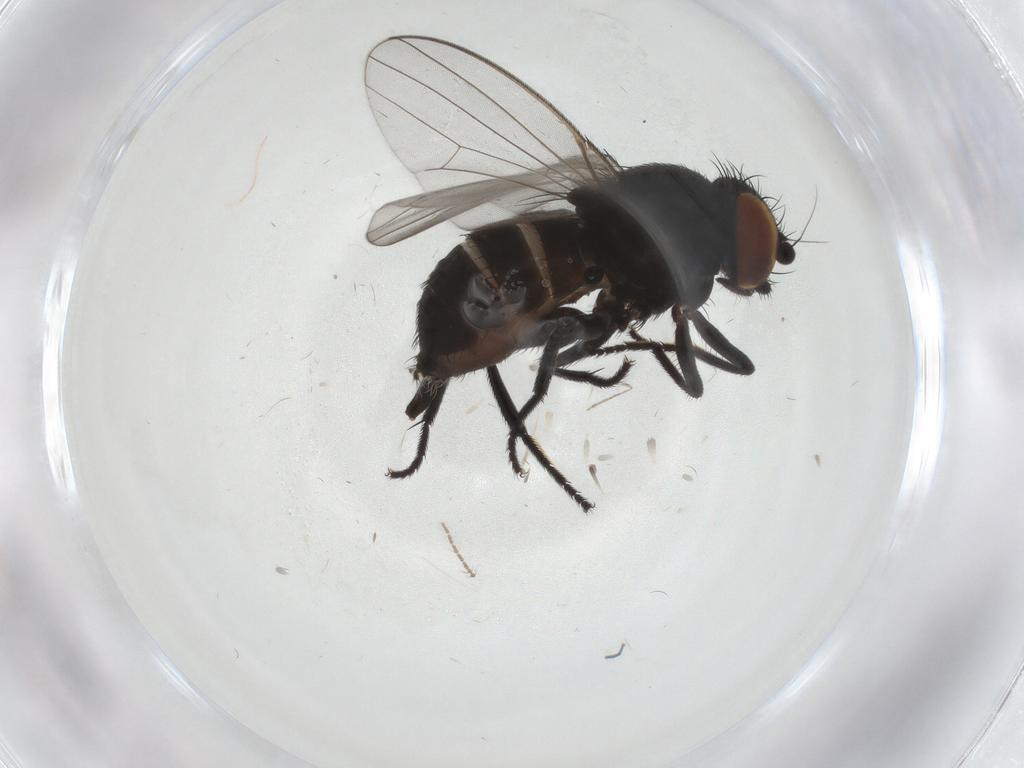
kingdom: Animalia
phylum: Arthropoda
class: Insecta
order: Diptera
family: Milichiidae
